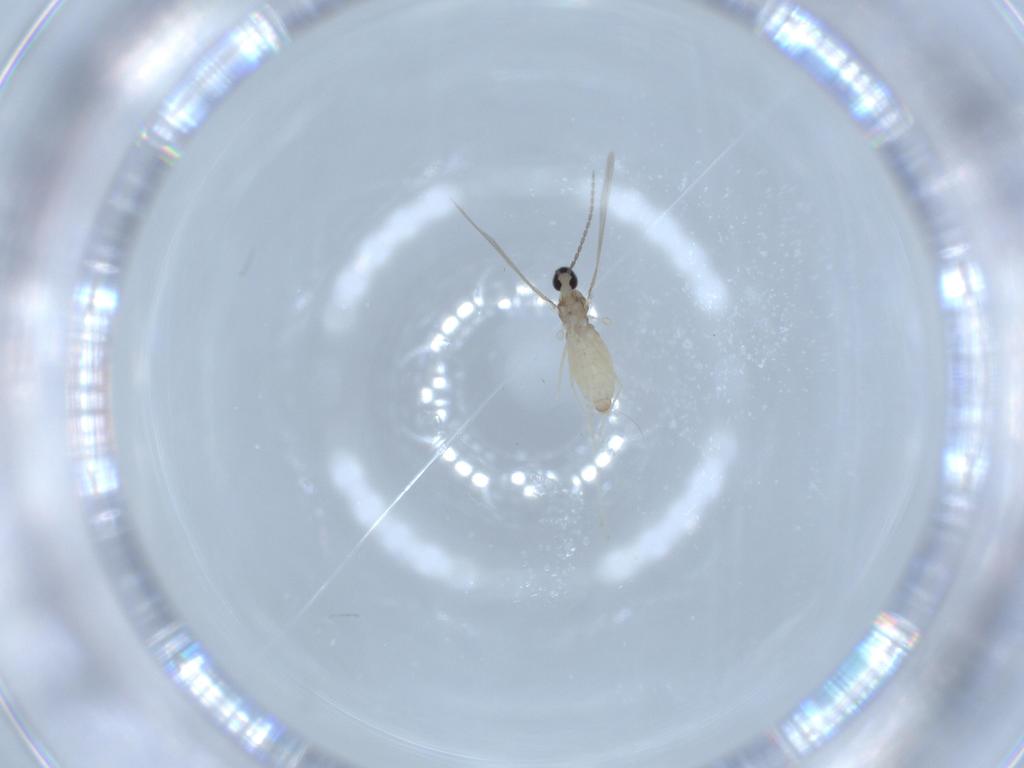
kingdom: Animalia
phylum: Arthropoda
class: Insecta
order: Diptera
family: Cecidomyiidae
